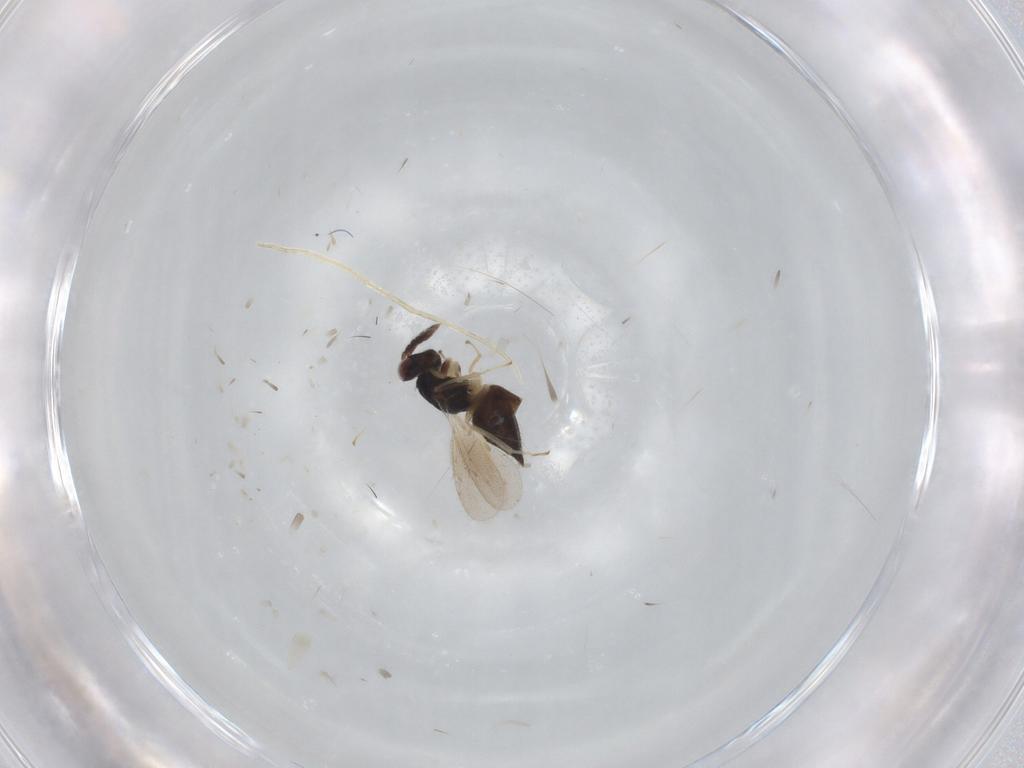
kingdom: Animalia
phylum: Arthropoda
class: Insecta
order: Hymenoptera
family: Eulophidae
